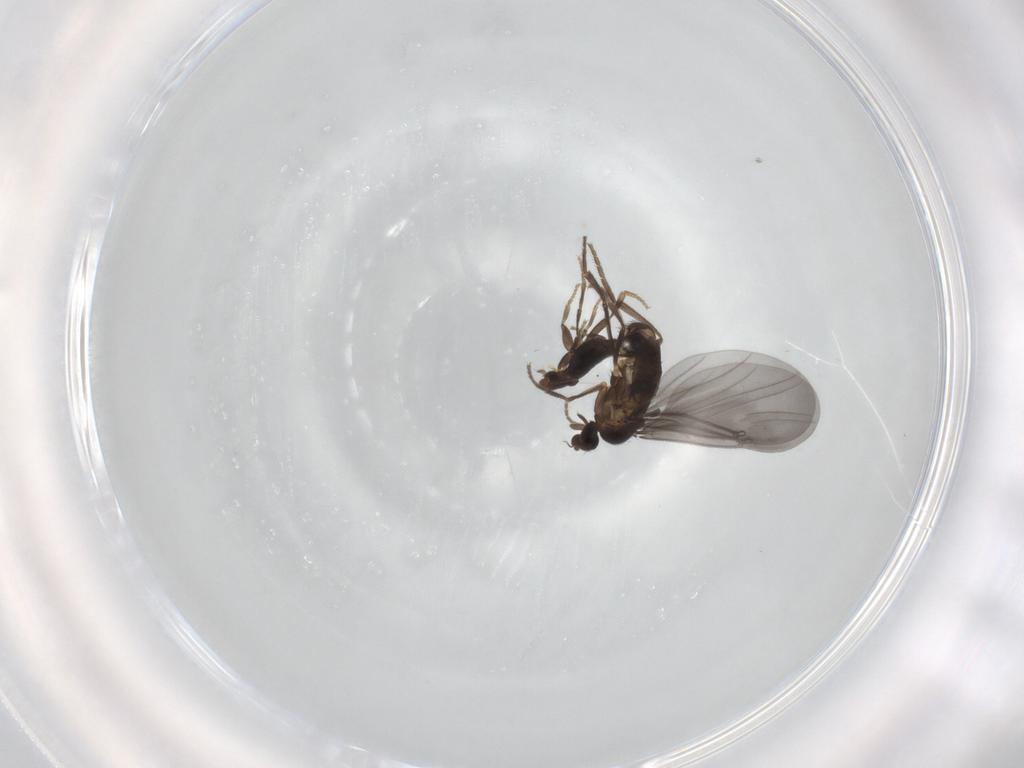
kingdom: Animalia
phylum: Arthropoda
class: Insecta
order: Diptera
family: Phoridae
